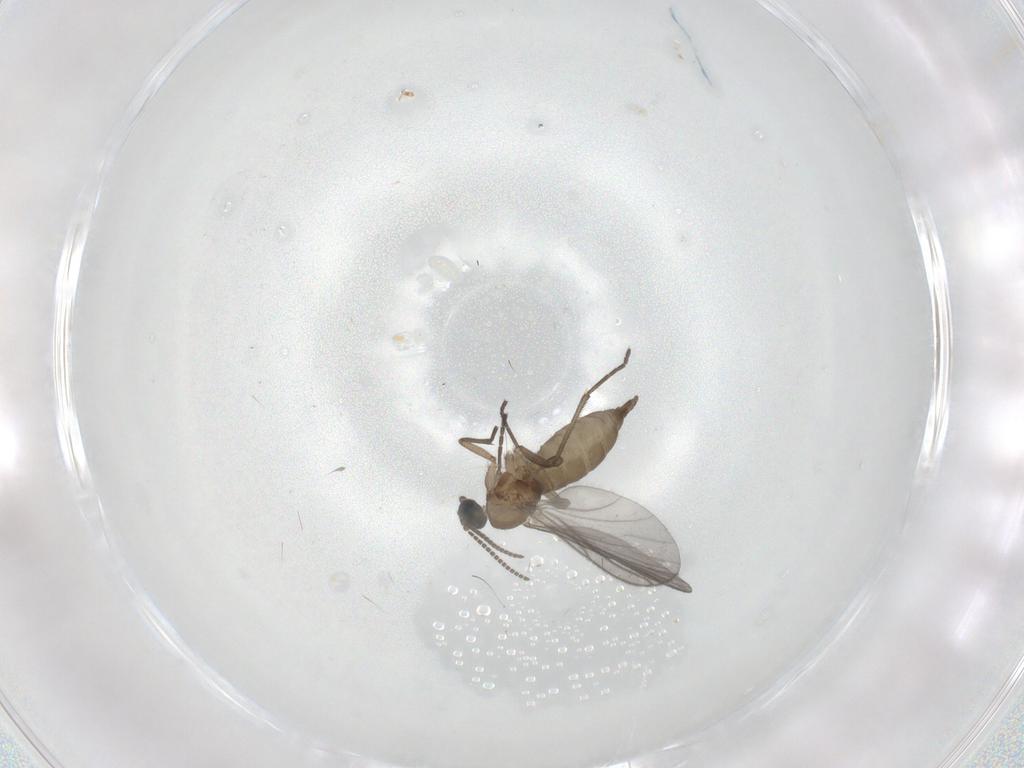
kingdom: Animalia
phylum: Arthropoda
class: Insecta
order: Diptera
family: Sciaridae
